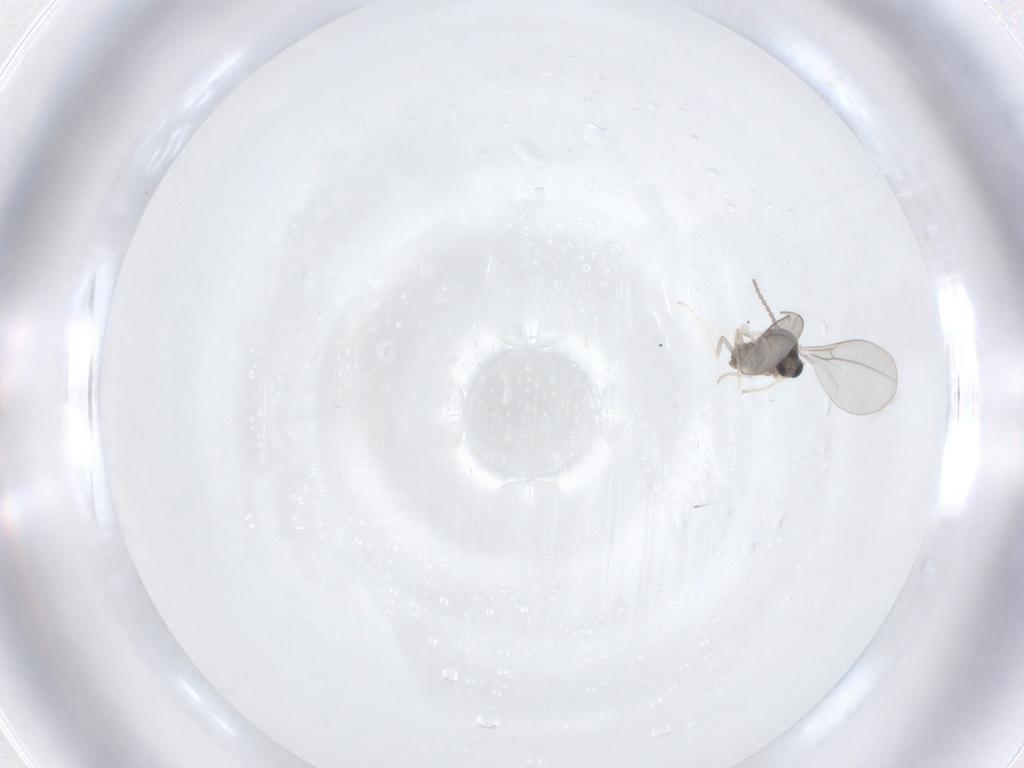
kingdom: Animalia
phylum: Arthropoda
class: Insecta
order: Diptera
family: Cecidomyiidae
